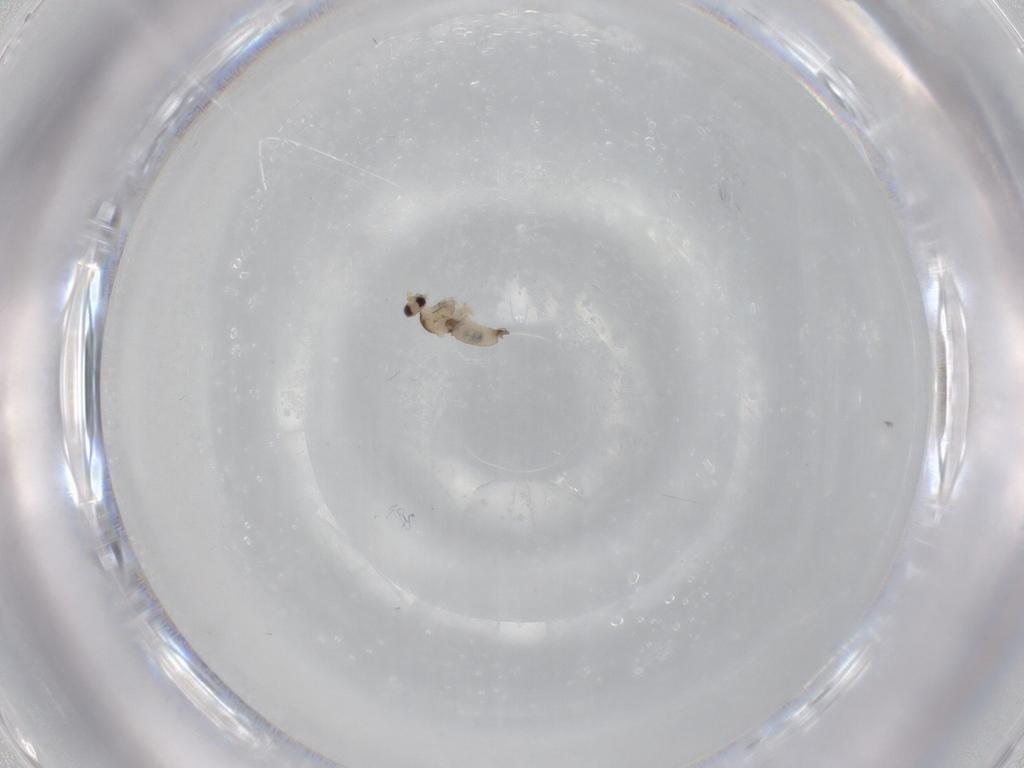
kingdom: Animalia
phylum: Arthropoda
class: Insecta
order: Diptera
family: Cecidomyiidae
